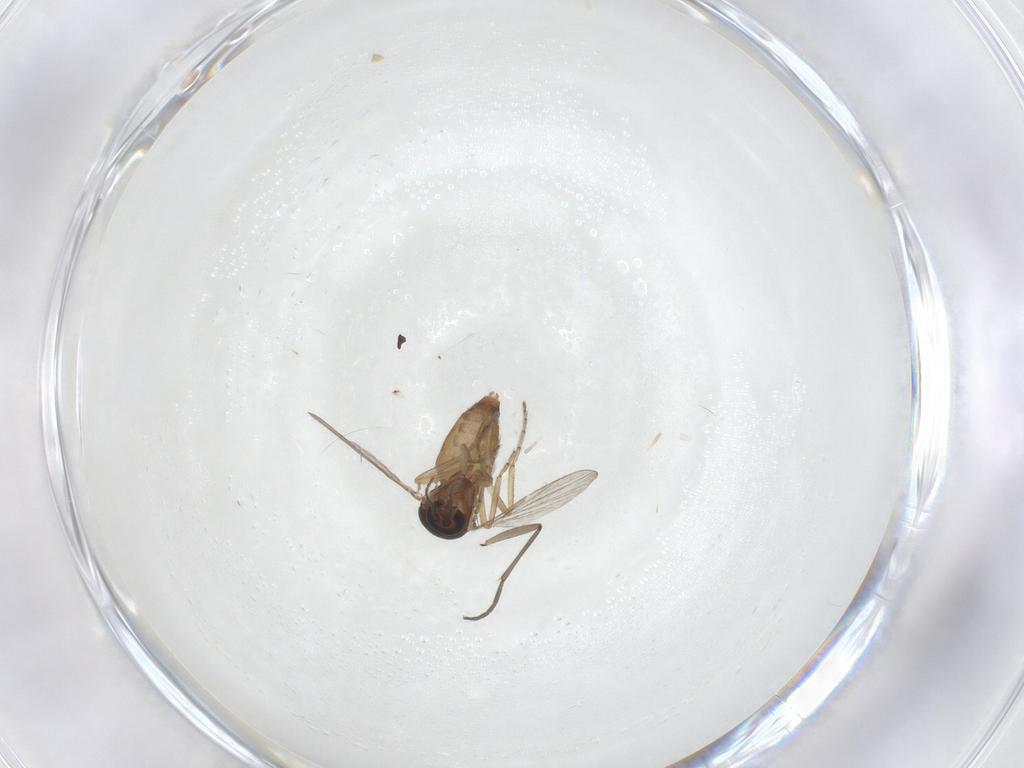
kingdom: Animalia
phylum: Arthropoda
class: Insecta
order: Diptera
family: Ceratopogonidae
